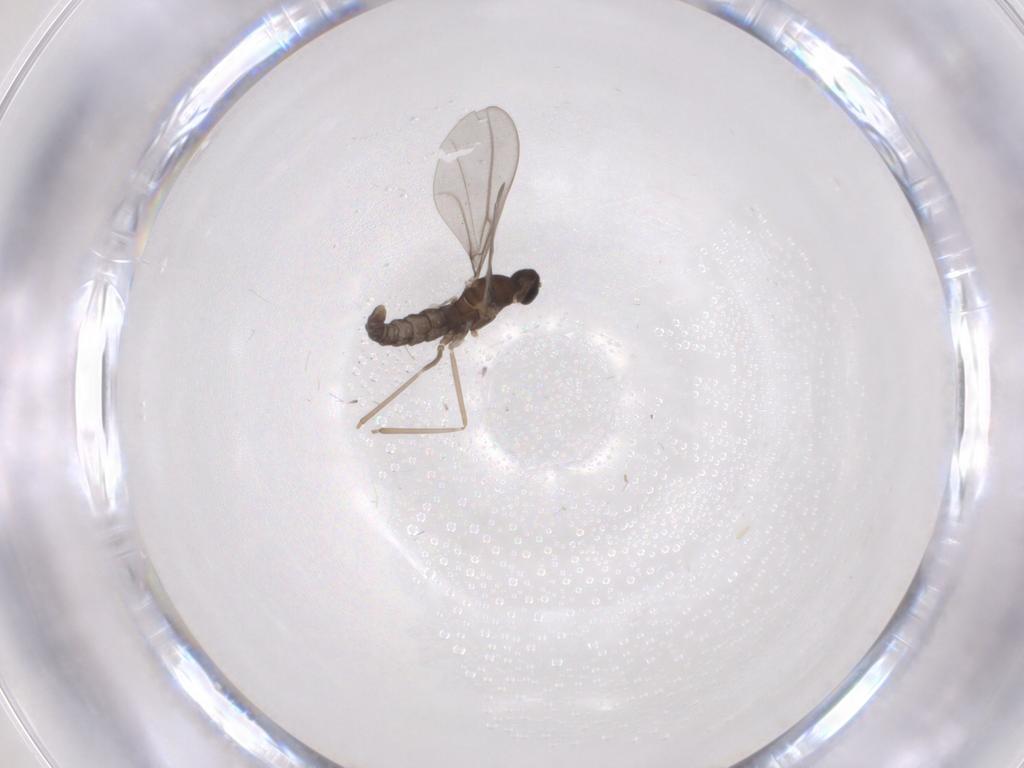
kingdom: Animalia
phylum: Arthropoda
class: Insecta
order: Diptera
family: Cecidomyiidae
